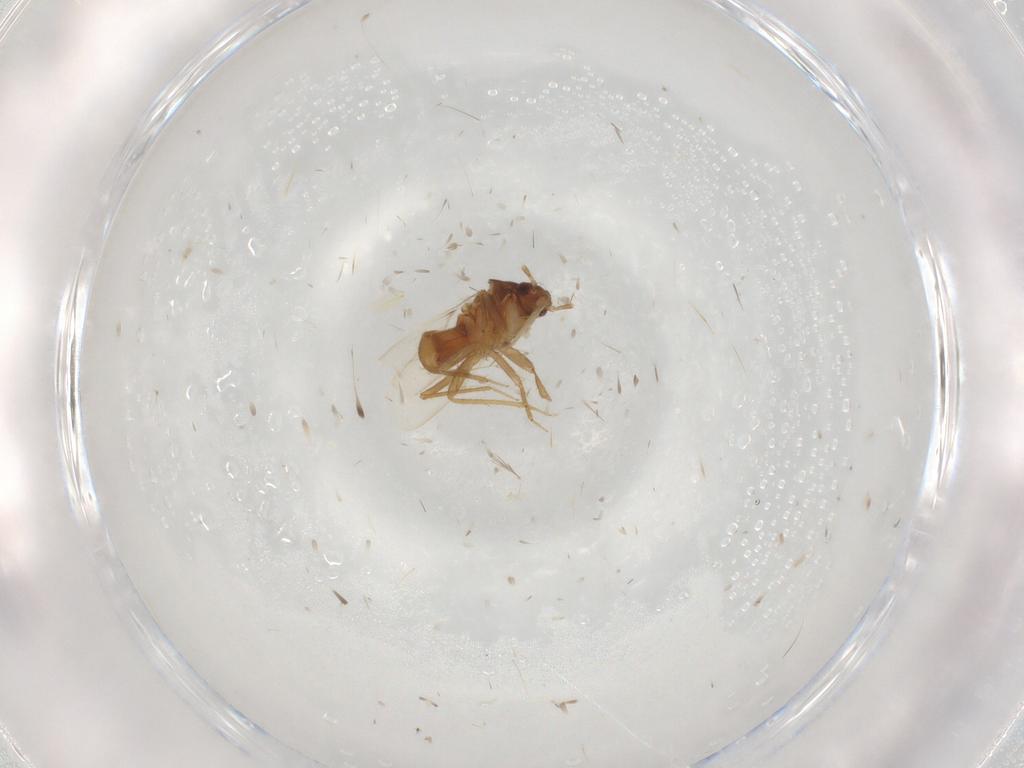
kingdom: Animalia
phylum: Arthropoda
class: Insecta
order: Hemiptera
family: Ceratocombidae
